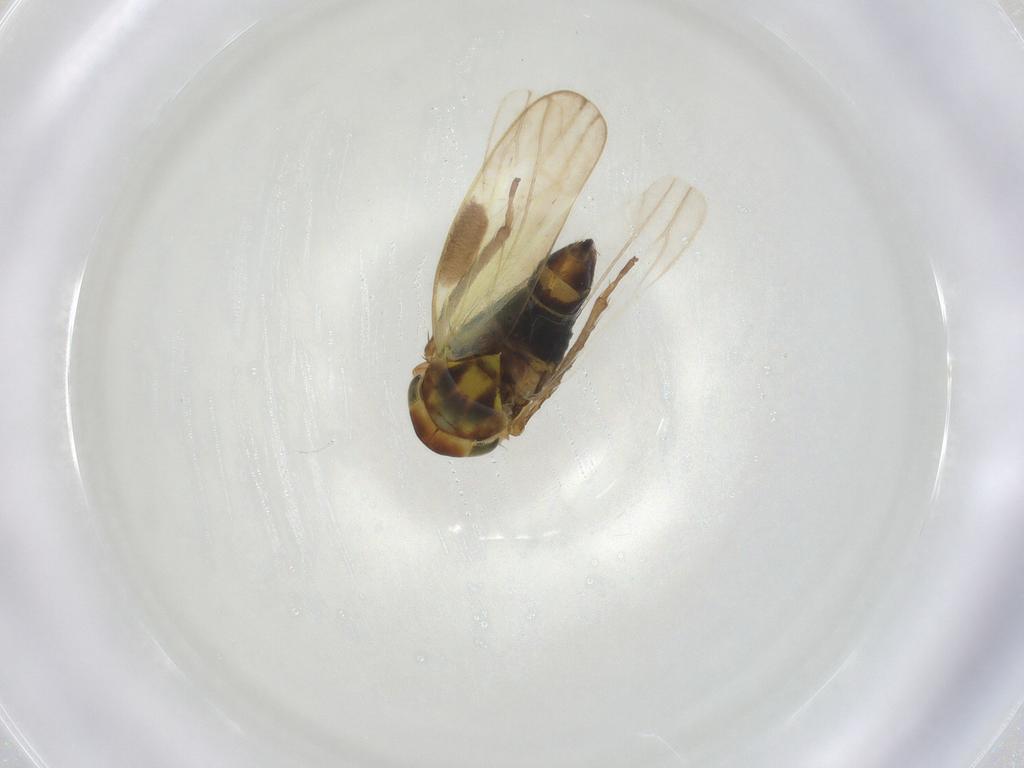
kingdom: Animalia
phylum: Arthropoda
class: Insecta
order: Hemiptera
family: Cicadellidae
